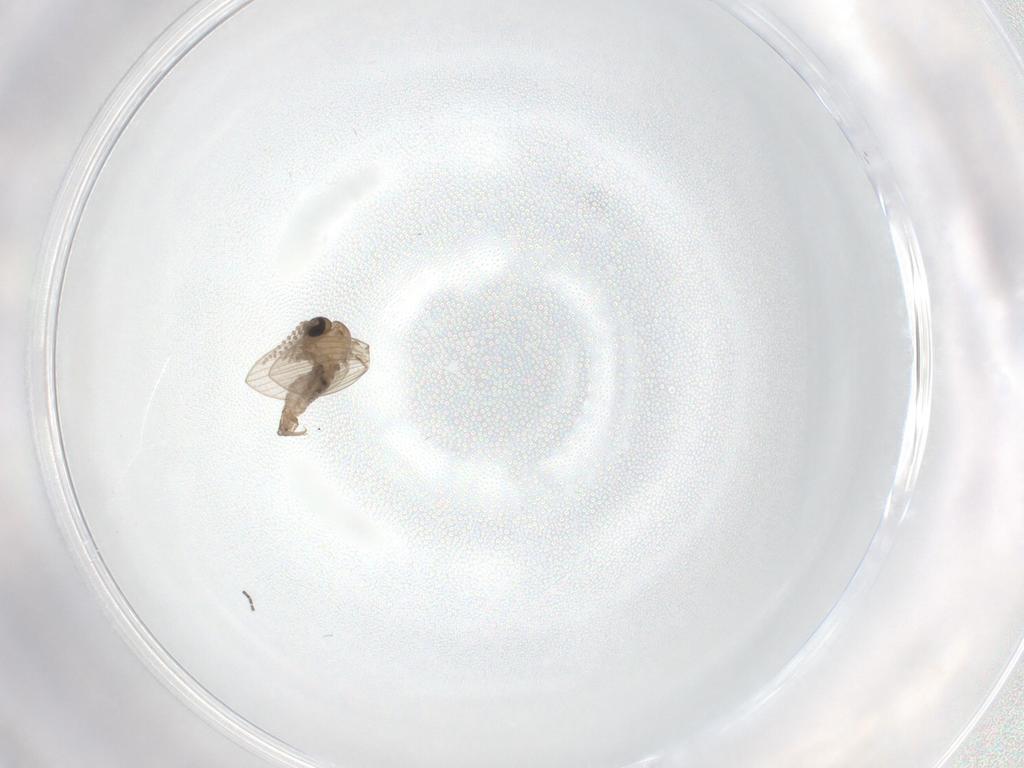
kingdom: Animalia
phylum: Arthropoda
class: Insecta
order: Diptera
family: Psychodidae
